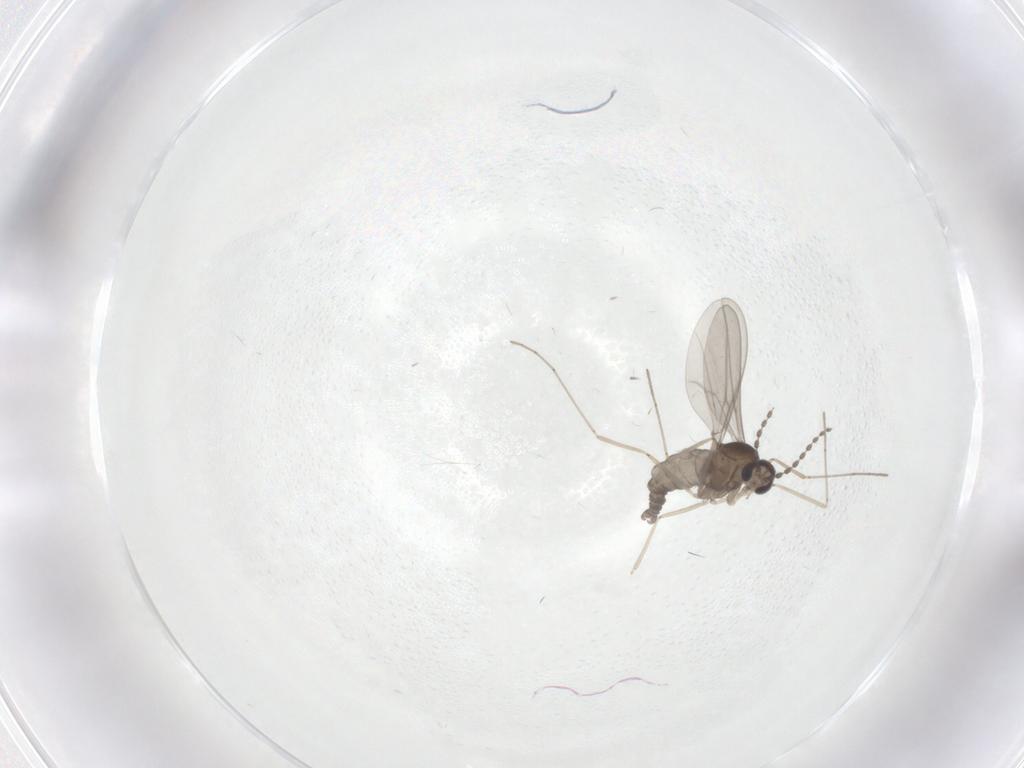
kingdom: Animalia
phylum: Arthropoda
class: Insecta
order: Diptera
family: Cecidomyiidae
